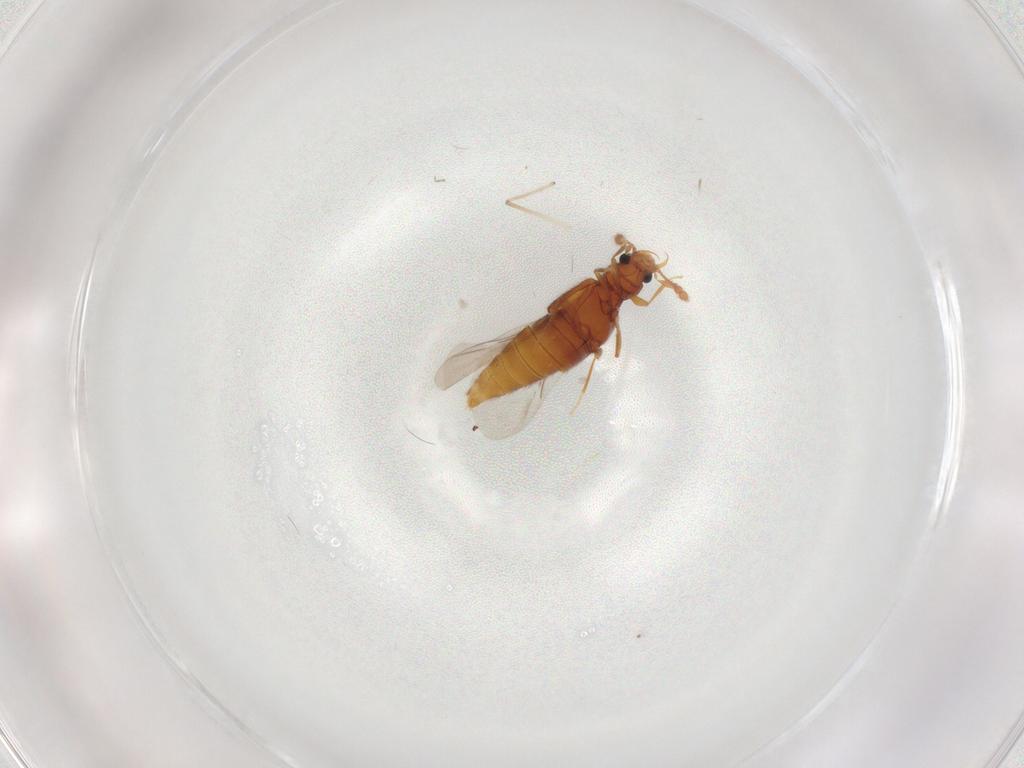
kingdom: Animalia
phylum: Arthropoda
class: Insecta
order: Coleoptera
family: Staphylinidae
